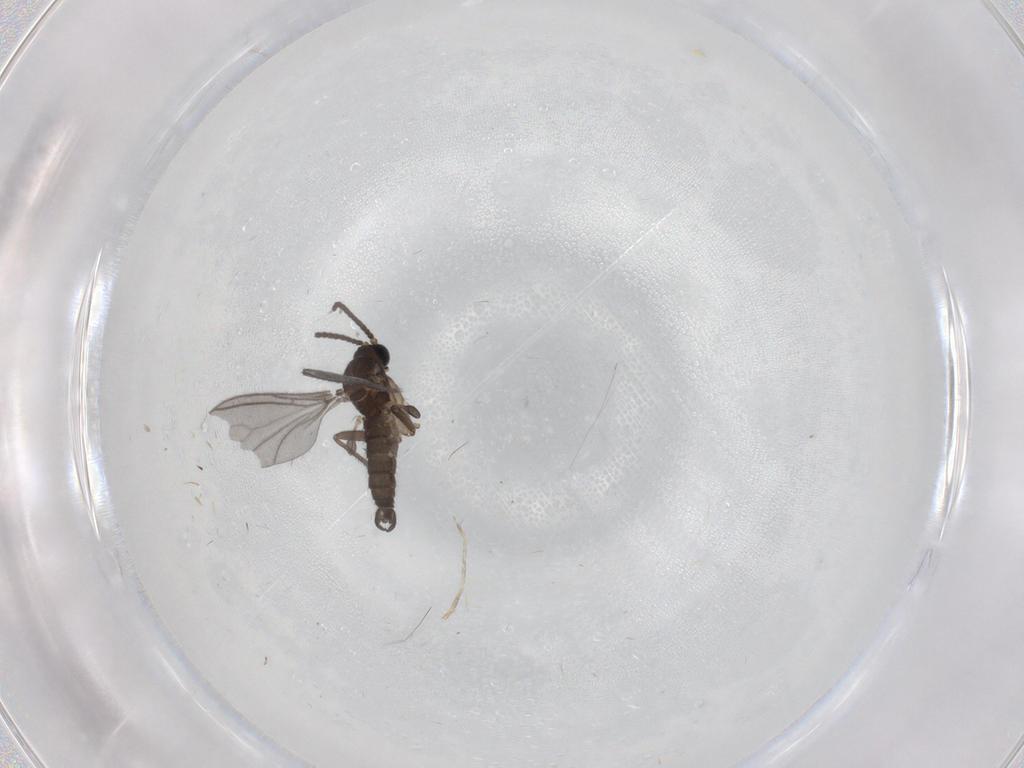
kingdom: Animalia
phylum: Arthropoda
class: Insecta
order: Diptera
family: Sciaridae
